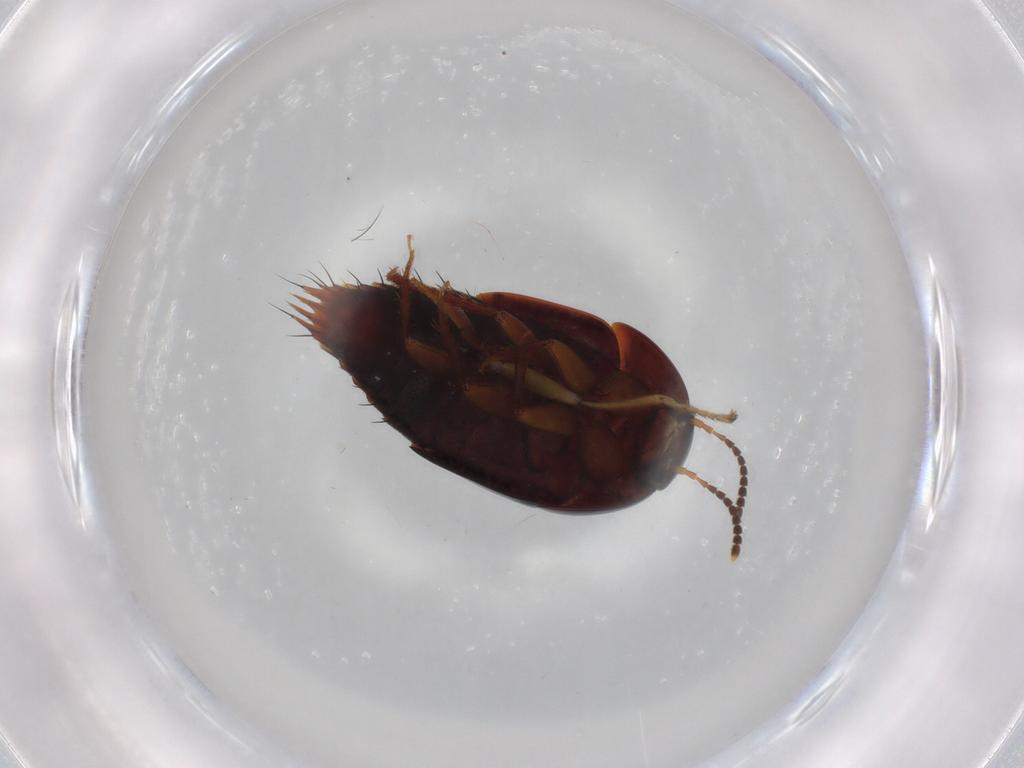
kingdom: Animalia
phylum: Arthropoda
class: Insecta
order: Coleoptera
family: Staphylinidae
